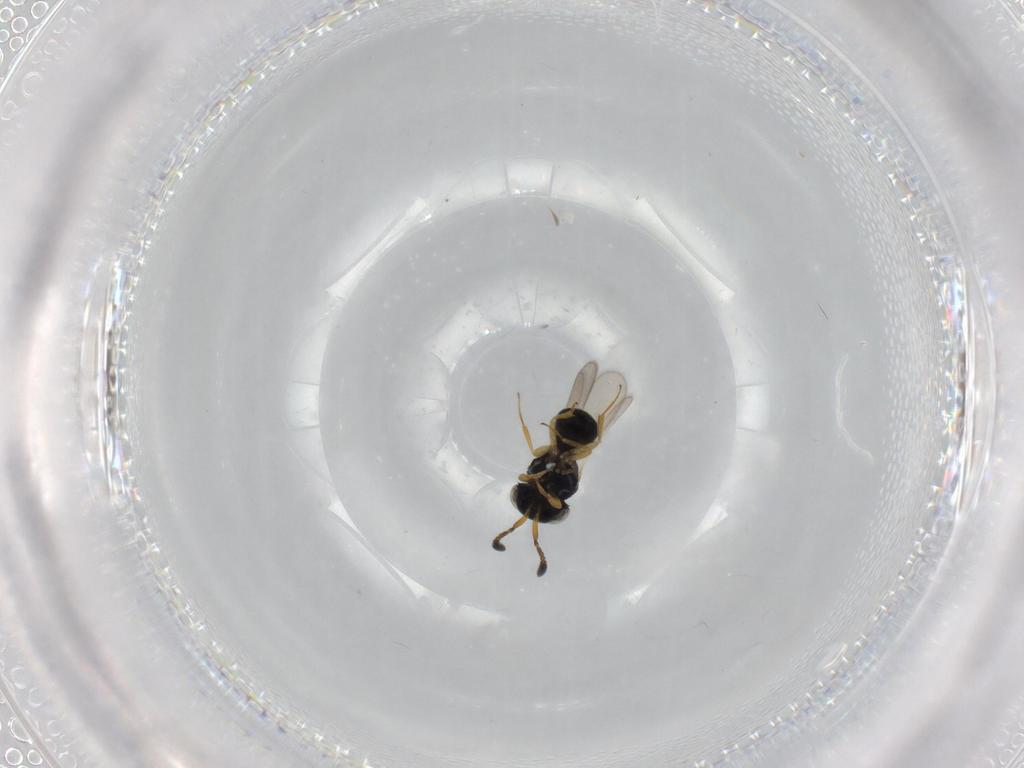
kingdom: Animalia
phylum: Arthropoda
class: Insecta
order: Hymenoptera
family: Scelionidae
